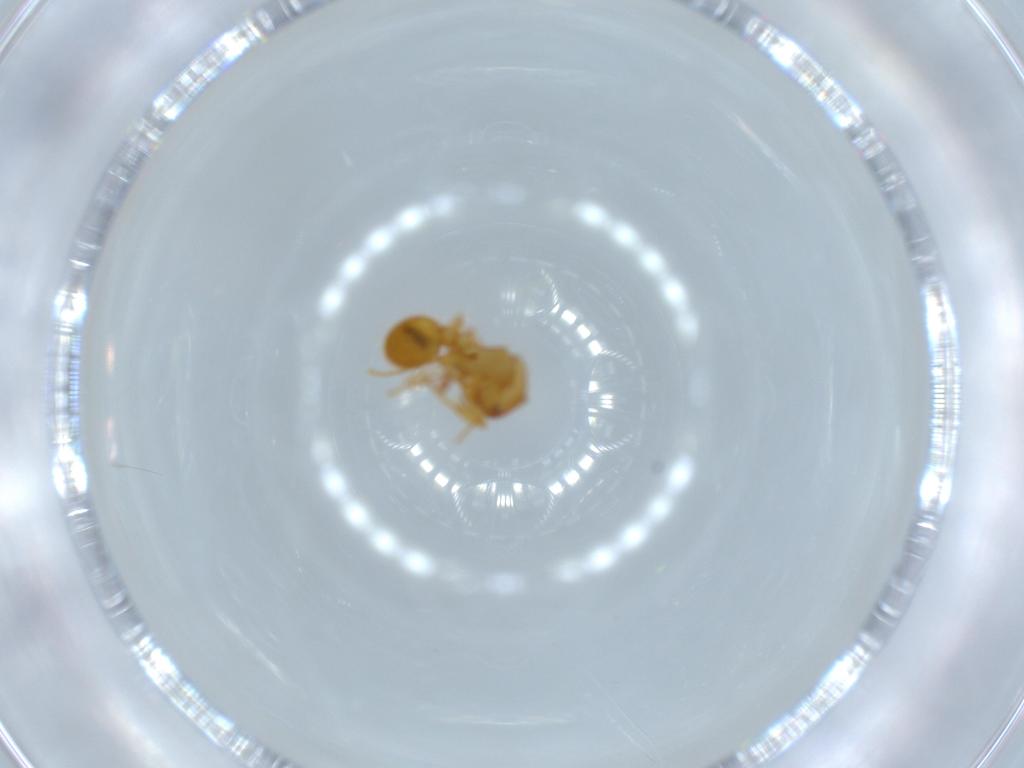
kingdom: Animalia
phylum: Arthropoda
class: Insecta
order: Hymenoptera
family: Formicidae
